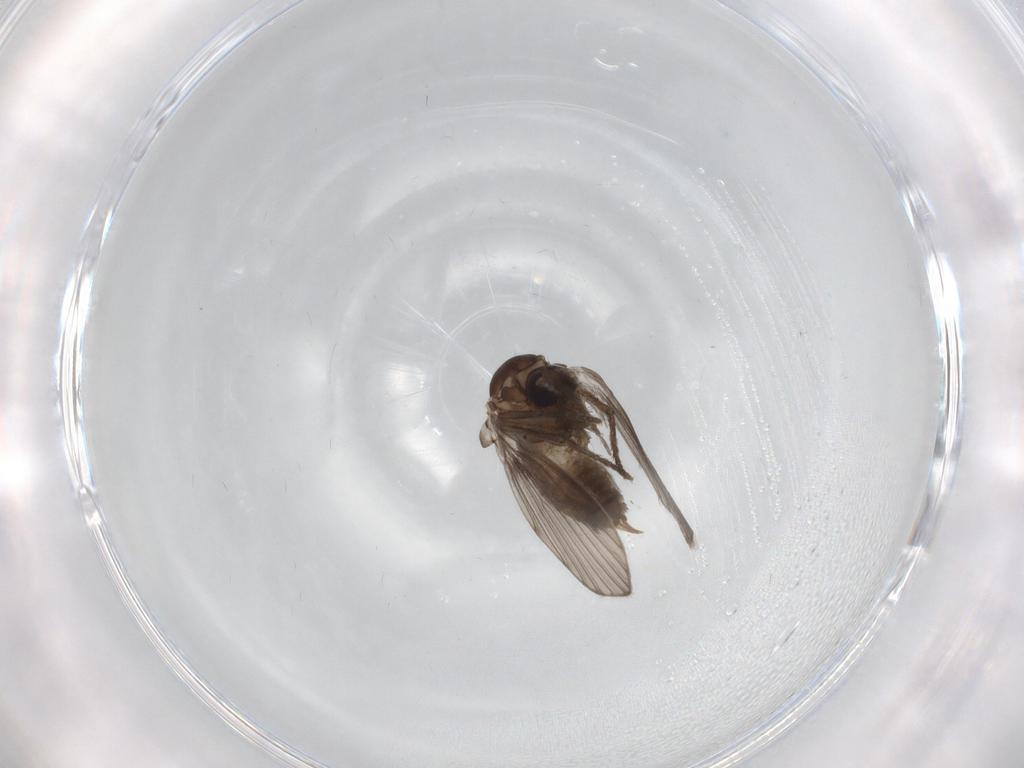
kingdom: Animalia
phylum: Arthropoda
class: Insecta
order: Diptera
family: Psychodidae
